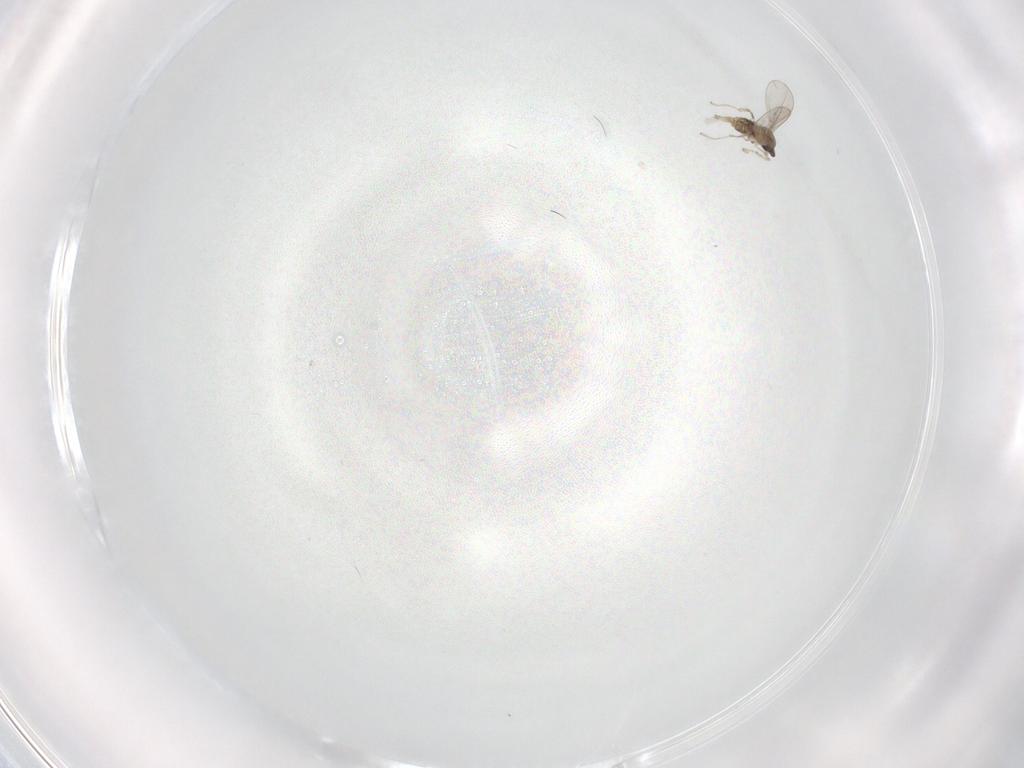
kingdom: Animalia
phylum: Arthropoda
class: Insecta
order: Diptera
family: Cecidomyiidae
